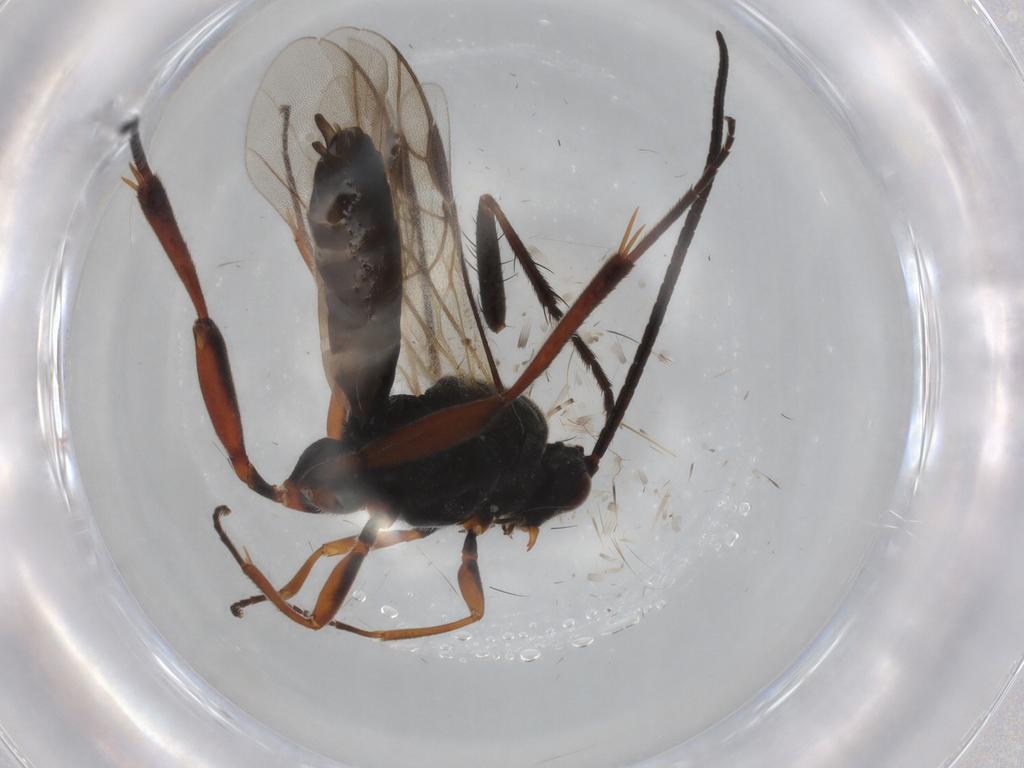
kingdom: Animalia
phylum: Arthropoda
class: Insecta
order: Hymenoptera
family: Braconidae
